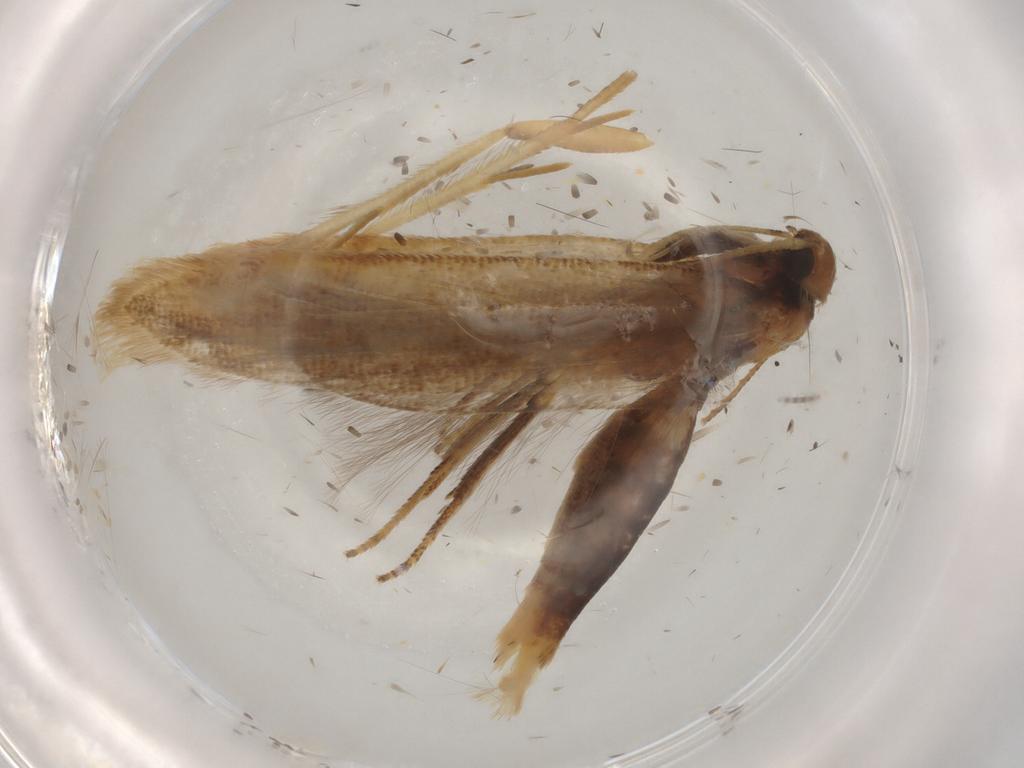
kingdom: Animalia
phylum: Arthropoda
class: Insecta
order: Lepidoptera
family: Gelechiidae
